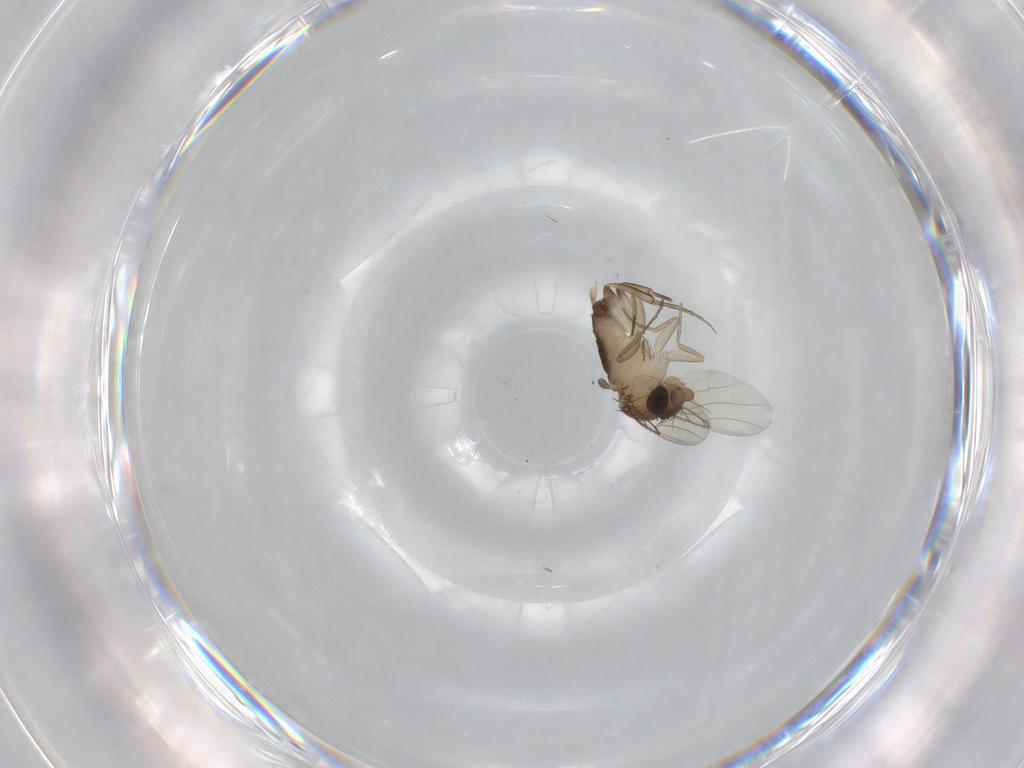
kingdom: Animalia
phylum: Arthropoda
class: Insecta
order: Diptera
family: Phoridae
